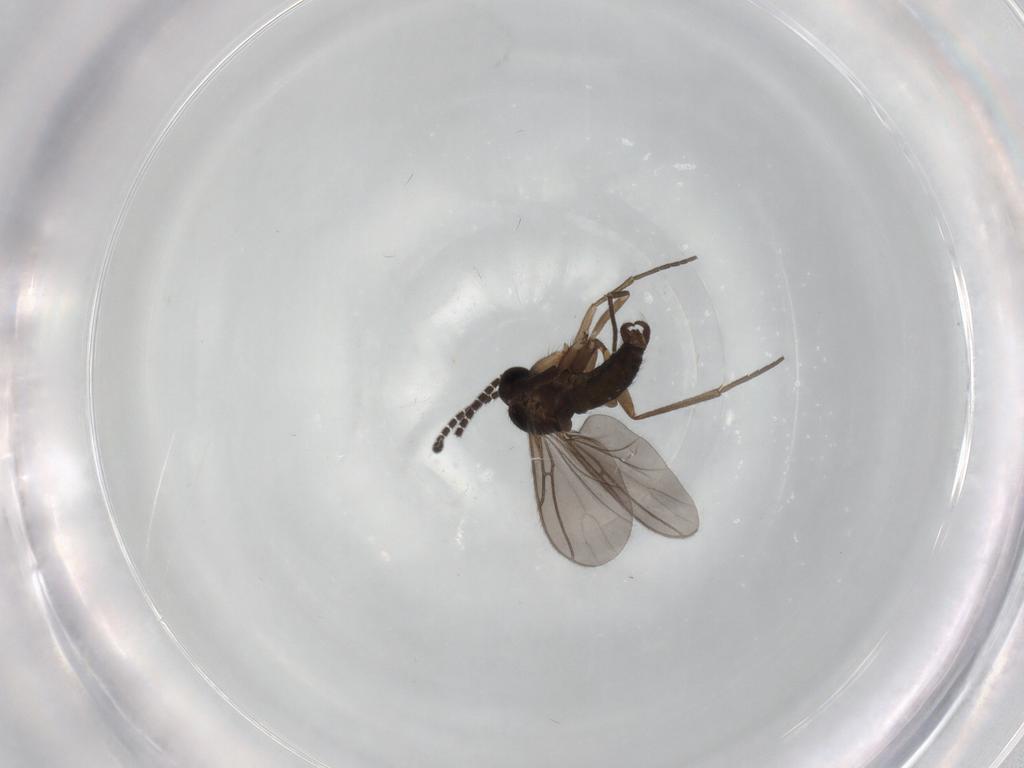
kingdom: Animalia
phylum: Arthropoda
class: Insecta
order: Diptera
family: Sciaridae
